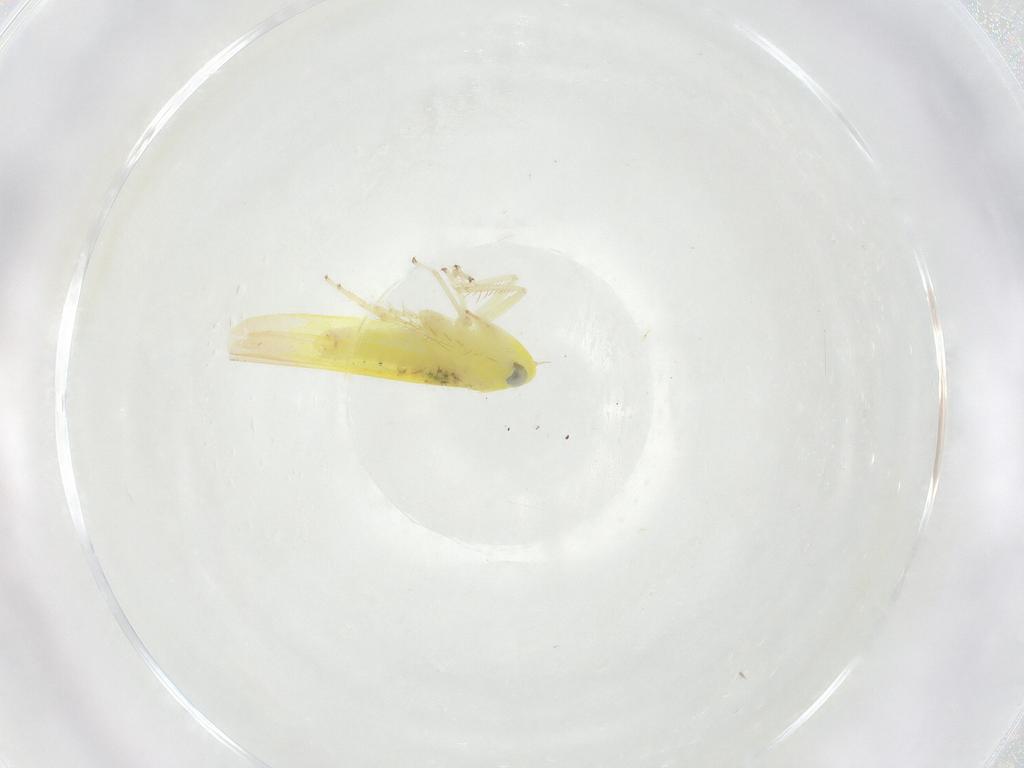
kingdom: Animalia
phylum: Arthropoda
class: Insecta
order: Hemiptera
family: Cicadellidae
